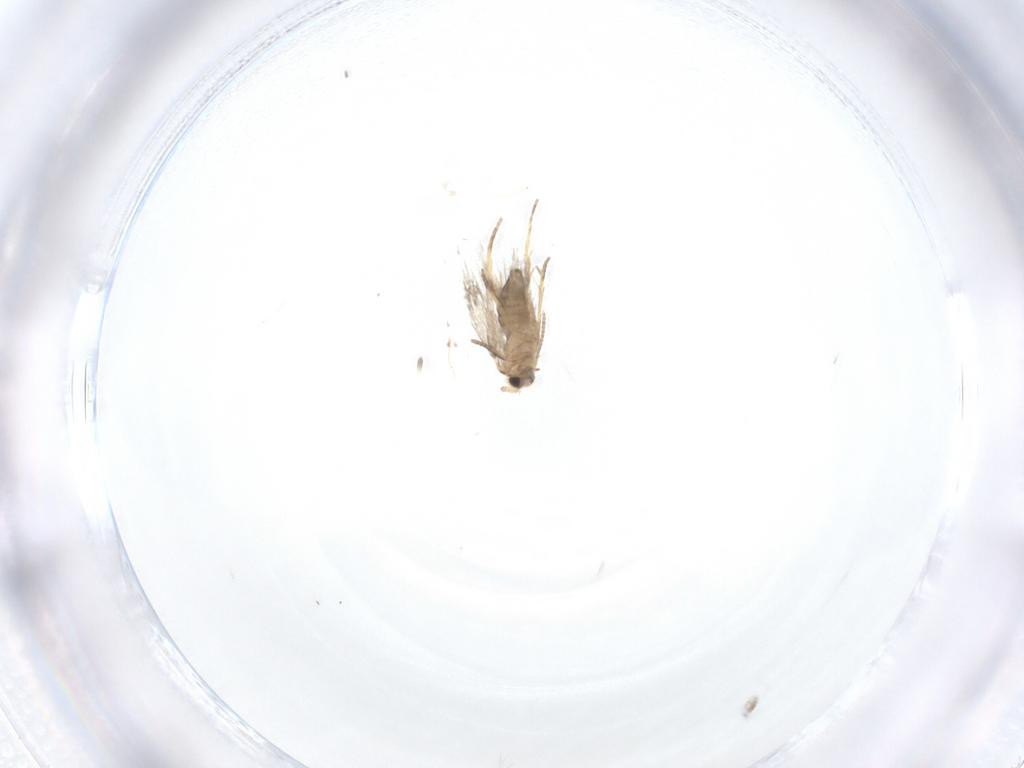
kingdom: Animalia
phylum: Arthropoda
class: Insecta
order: Lepidoptera
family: Nepticulidae
